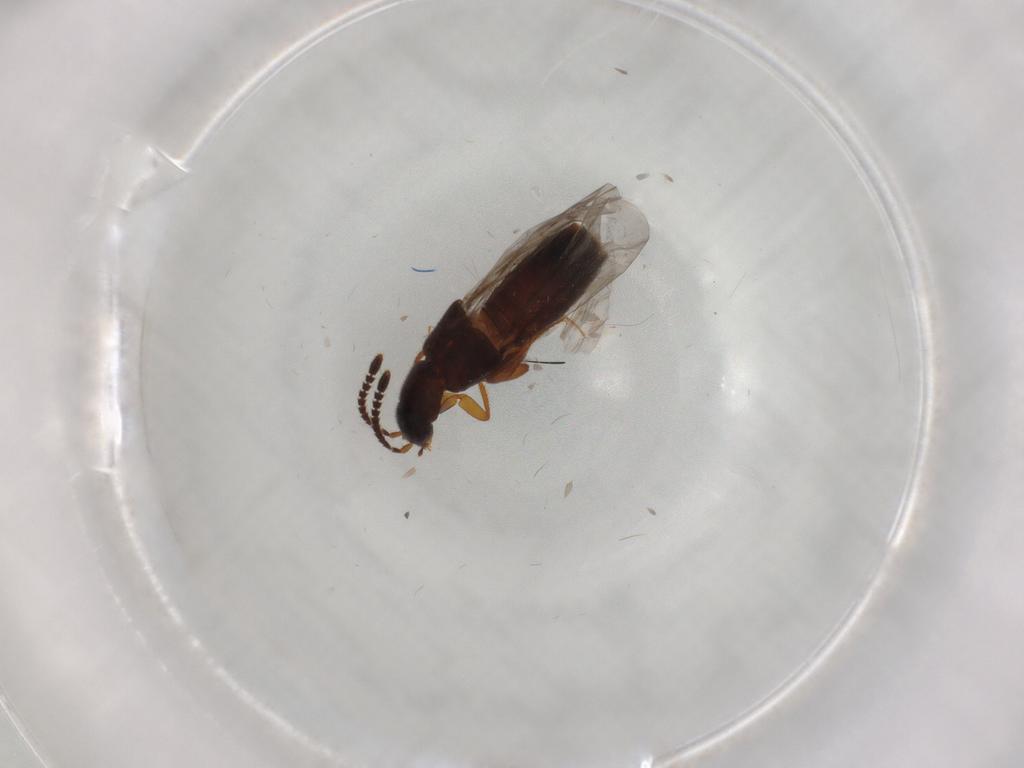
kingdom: Animalia
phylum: Arthropoda
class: Insecta
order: Coleoptera
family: Staphylinidae
